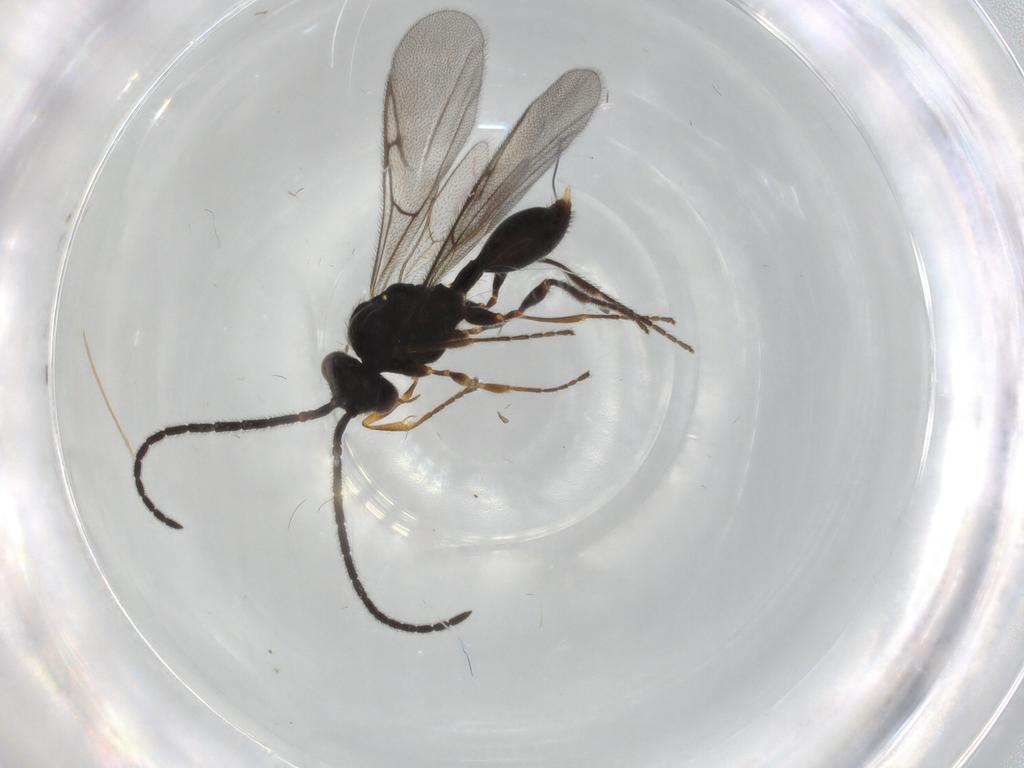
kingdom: Animalia
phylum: Arthropoda
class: Insecta
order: Hymenoptera
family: Diapriidae
